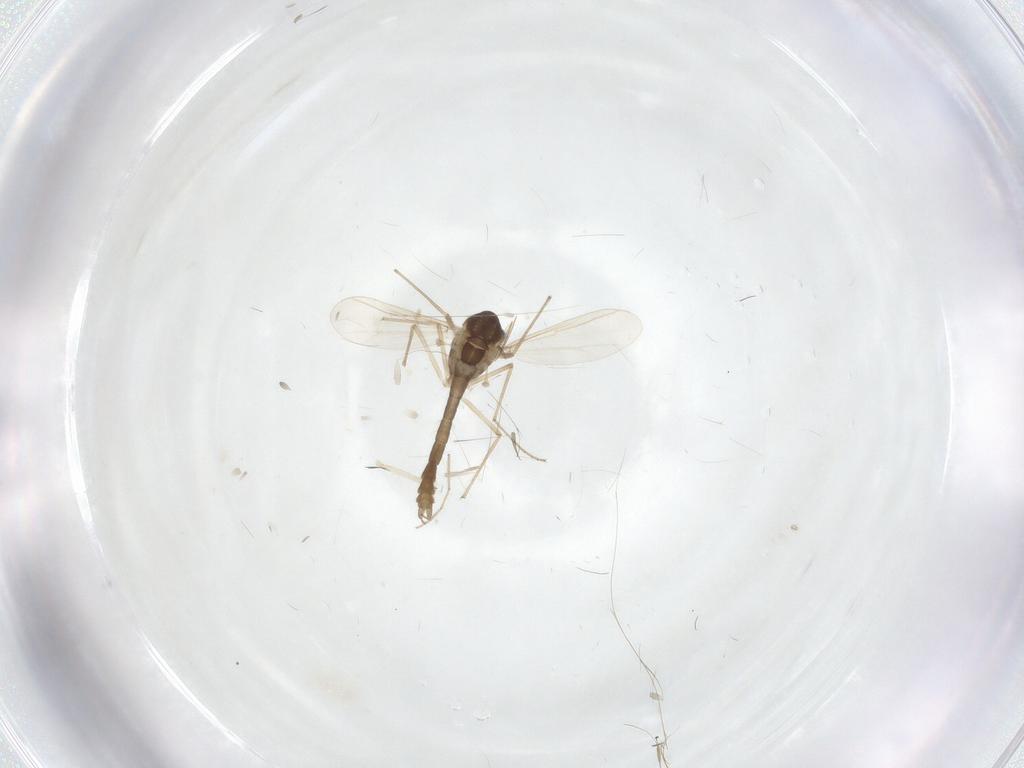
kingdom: Animalia
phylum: Arthropoda
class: Insecta
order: Diptera
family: Chironomidae
